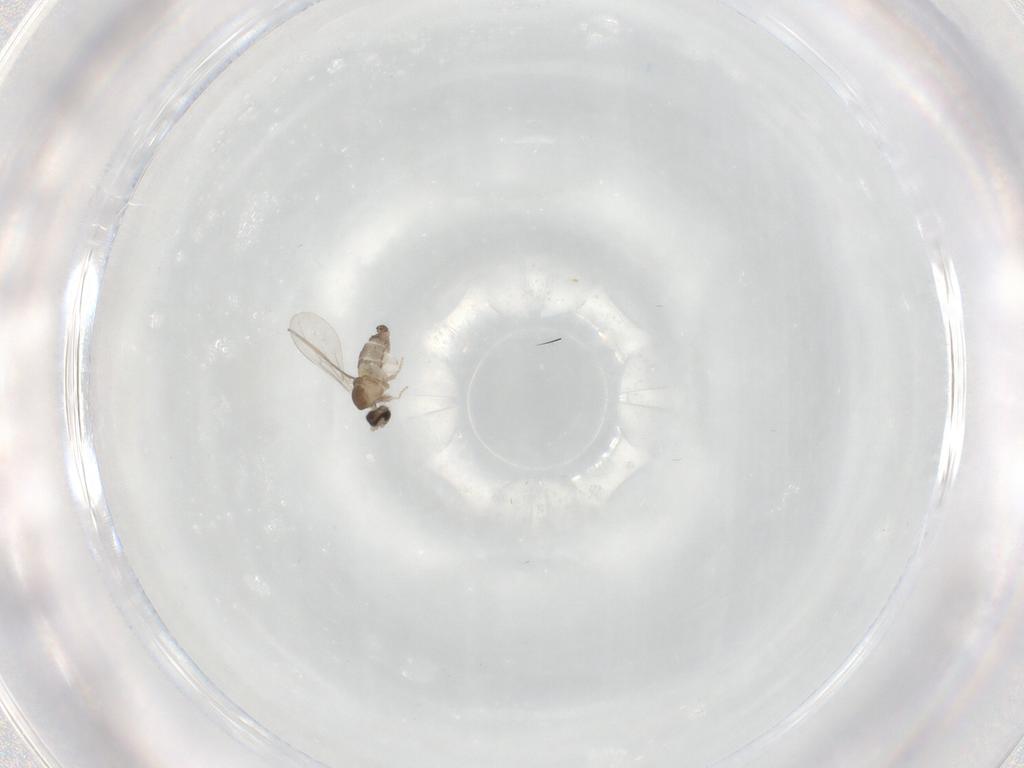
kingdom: Animalia
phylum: Arthropoda
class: Insecta
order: Diptera
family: Cecidomyiidae
